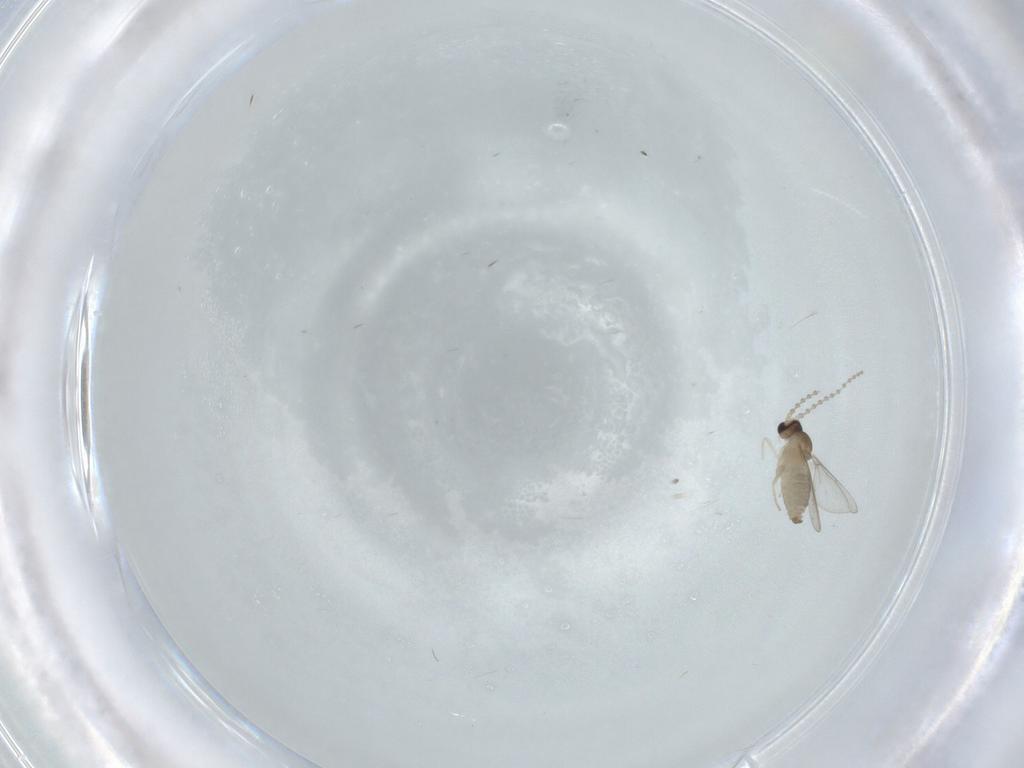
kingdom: Animalia
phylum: Arthropoda
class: Insecta
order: Diptera
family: Cecidomyiidae
